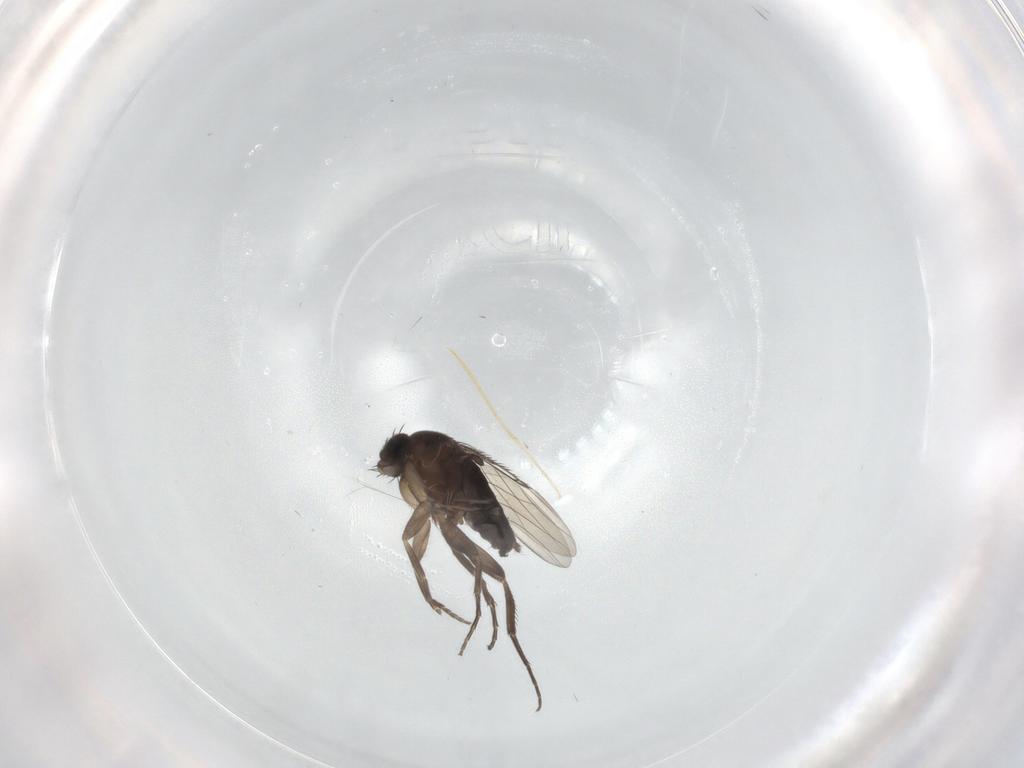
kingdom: Animalia
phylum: Arthropoda
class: Insecta
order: Diptera
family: Phoridae
